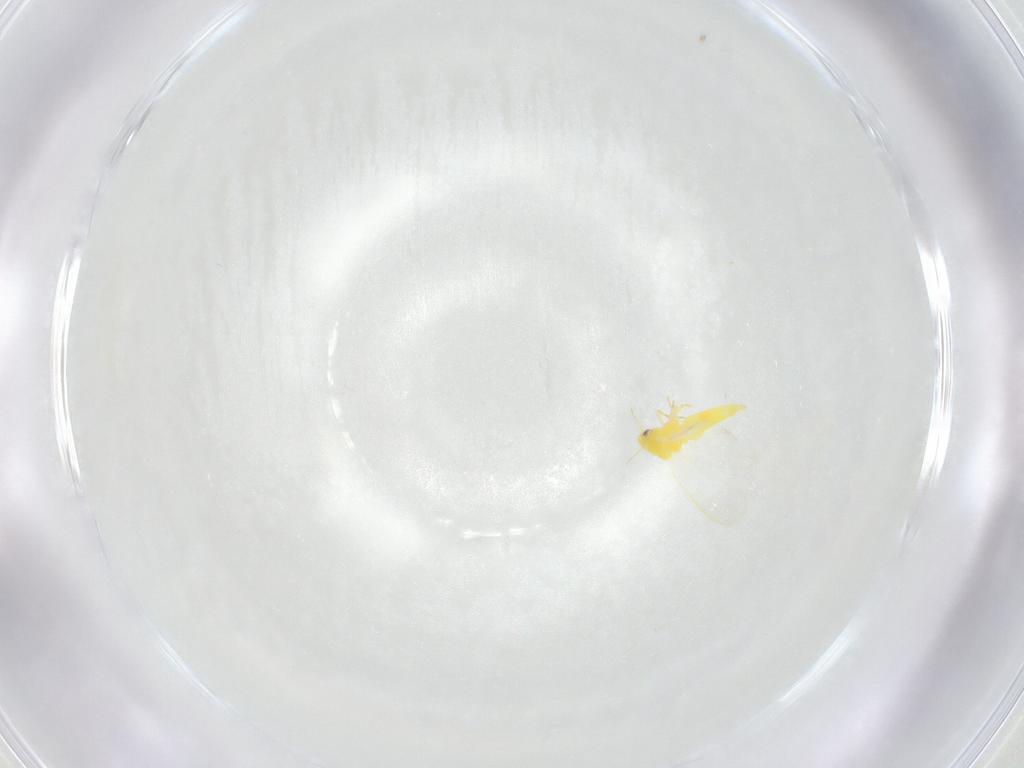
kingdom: Animalia
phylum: Arthropoda
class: Insecta
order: Hemiptera
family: Aleyrodidae
